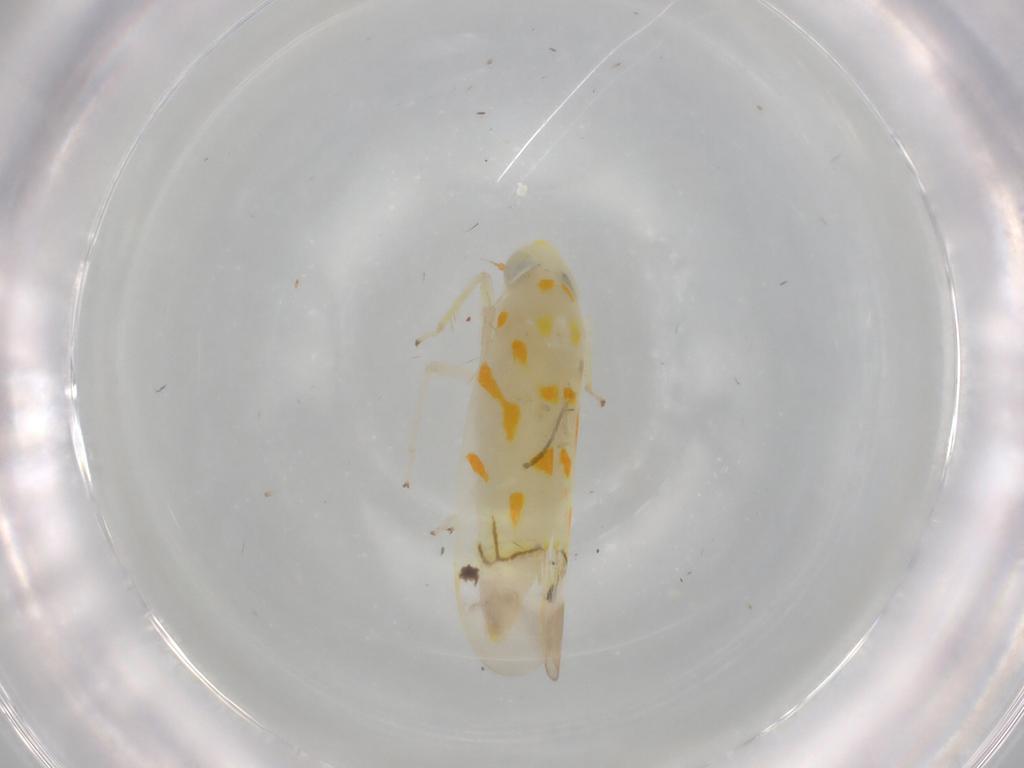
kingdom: Animalia
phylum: Arthropoda
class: Insecta
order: Hemiptera
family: Cicadellidae
